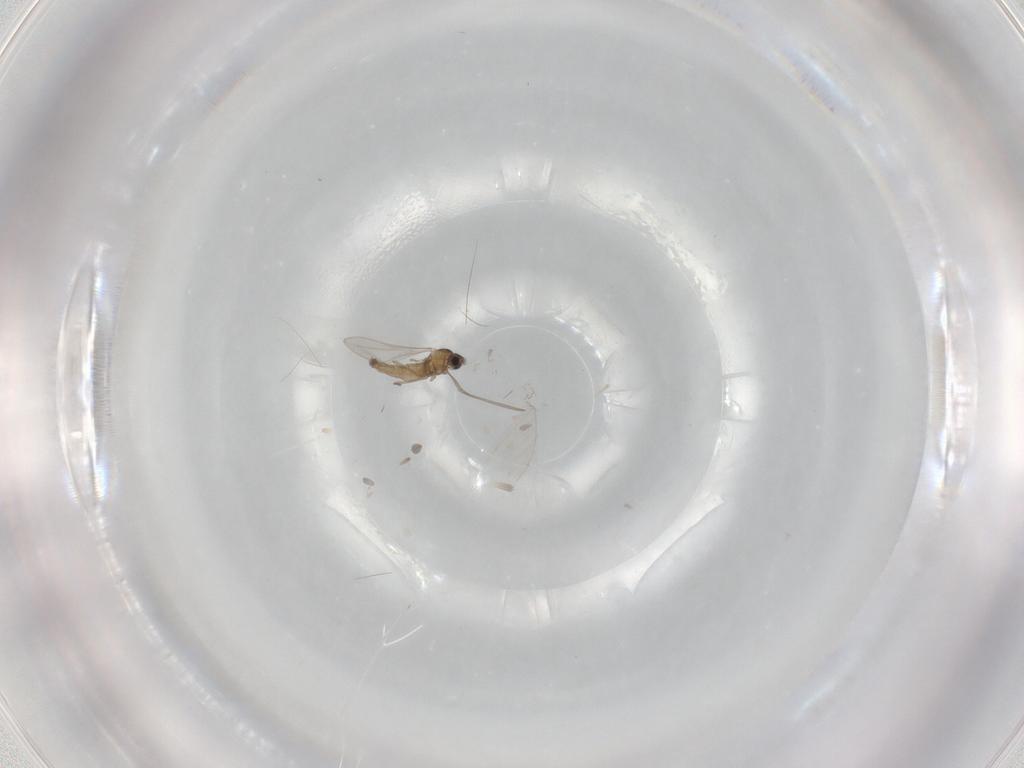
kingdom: Animalia
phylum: Arthropoda
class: Insecta
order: Diptera
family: Cecidomyiidae
